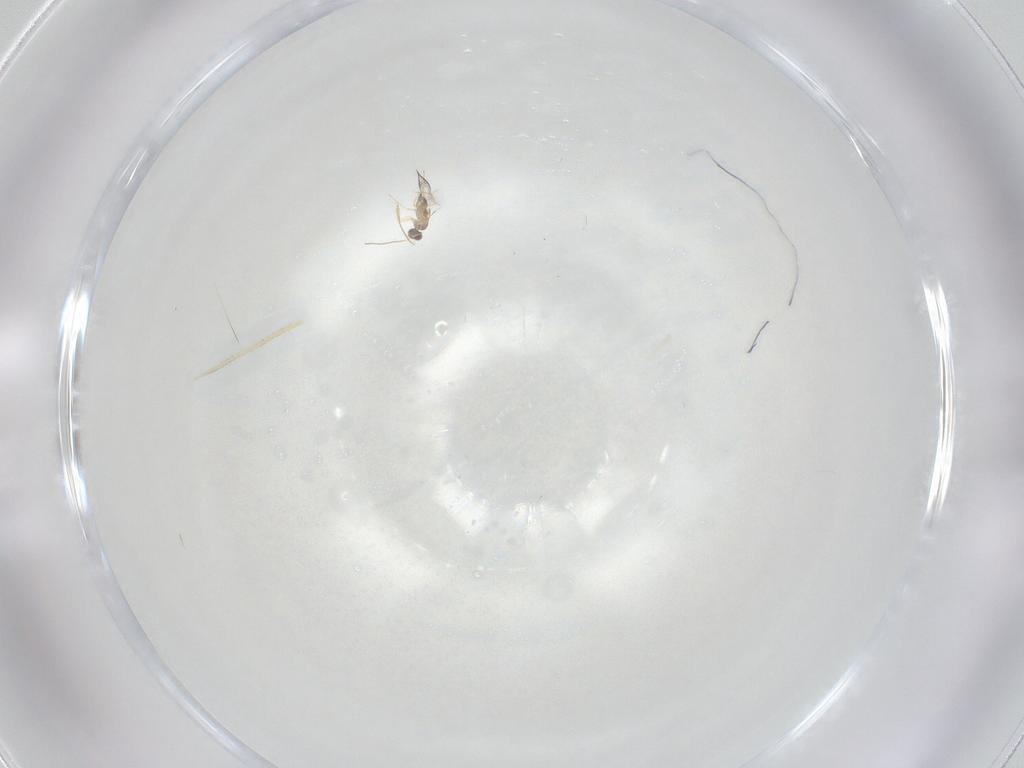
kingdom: Animalia
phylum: Arthropoda
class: Insecta
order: Hymenoptera
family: Mymaridae
